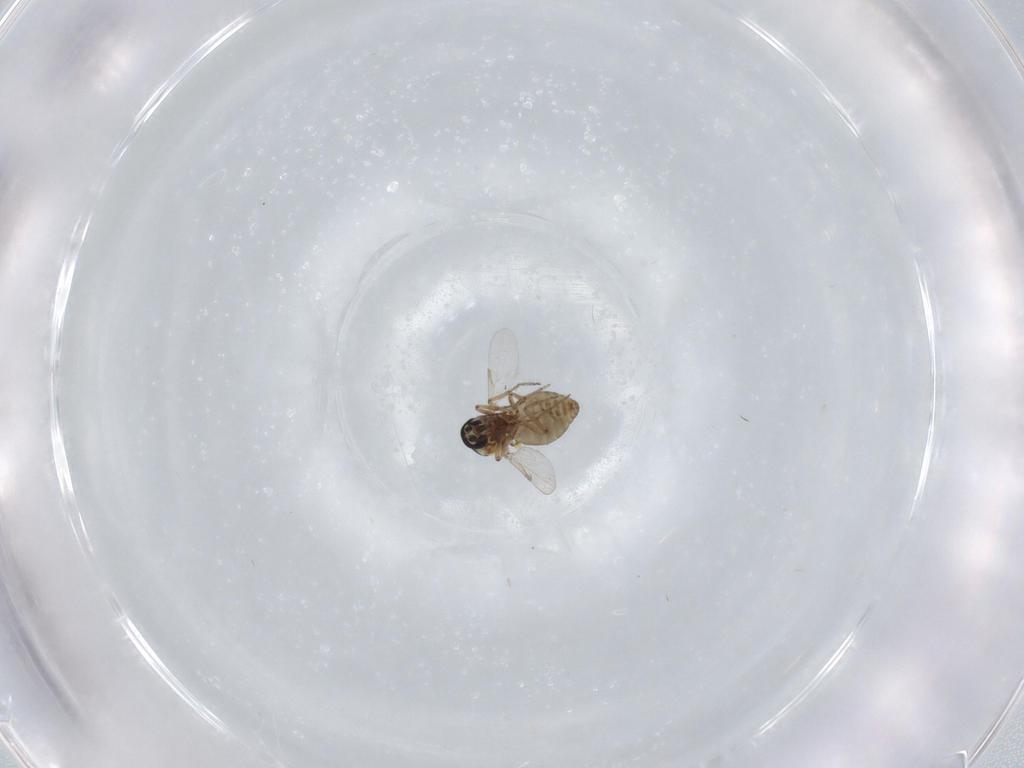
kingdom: Animalia
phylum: Arthropoda
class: Insecta
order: Diptera
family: Ceratopogonidae
